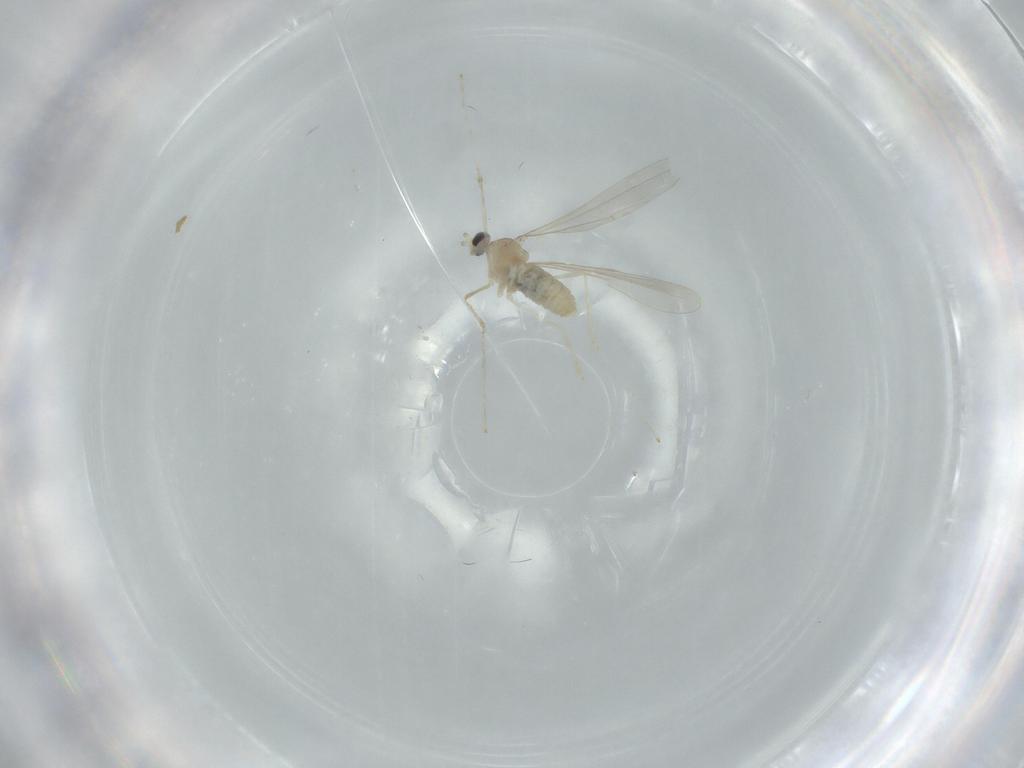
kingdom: Animalia
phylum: Arthropoda
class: Insecta
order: Diptera
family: Cecidomyiidae
